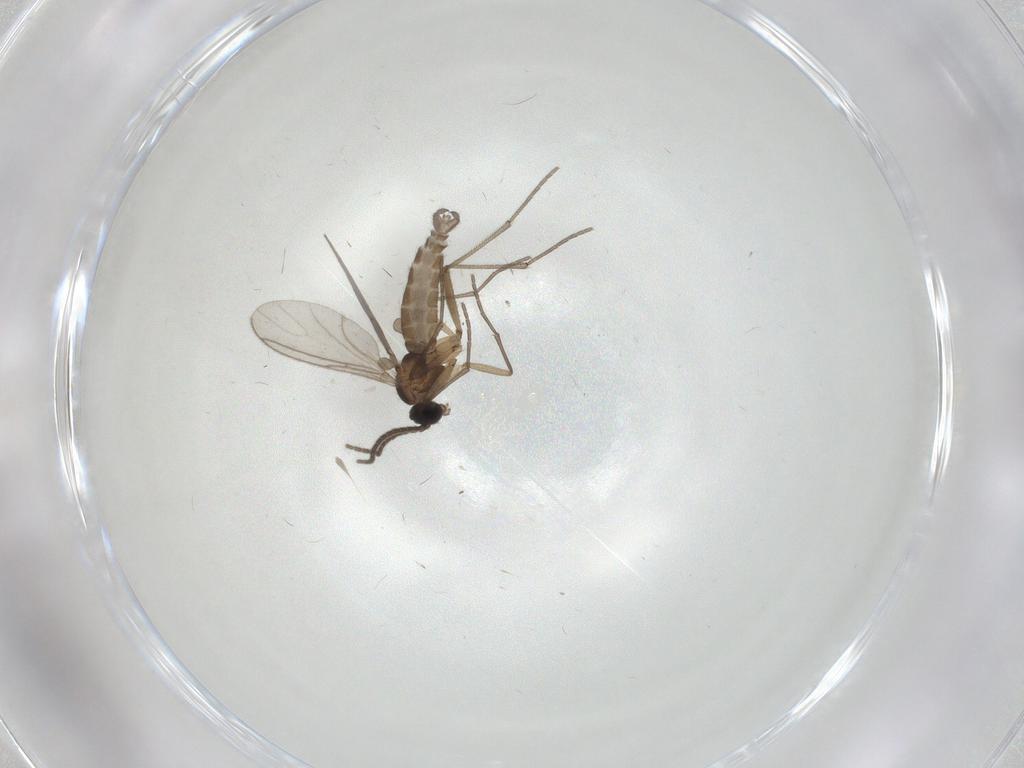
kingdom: Animalia
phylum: Arthropoda
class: Insecta
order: Diptera
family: Sciaridae
